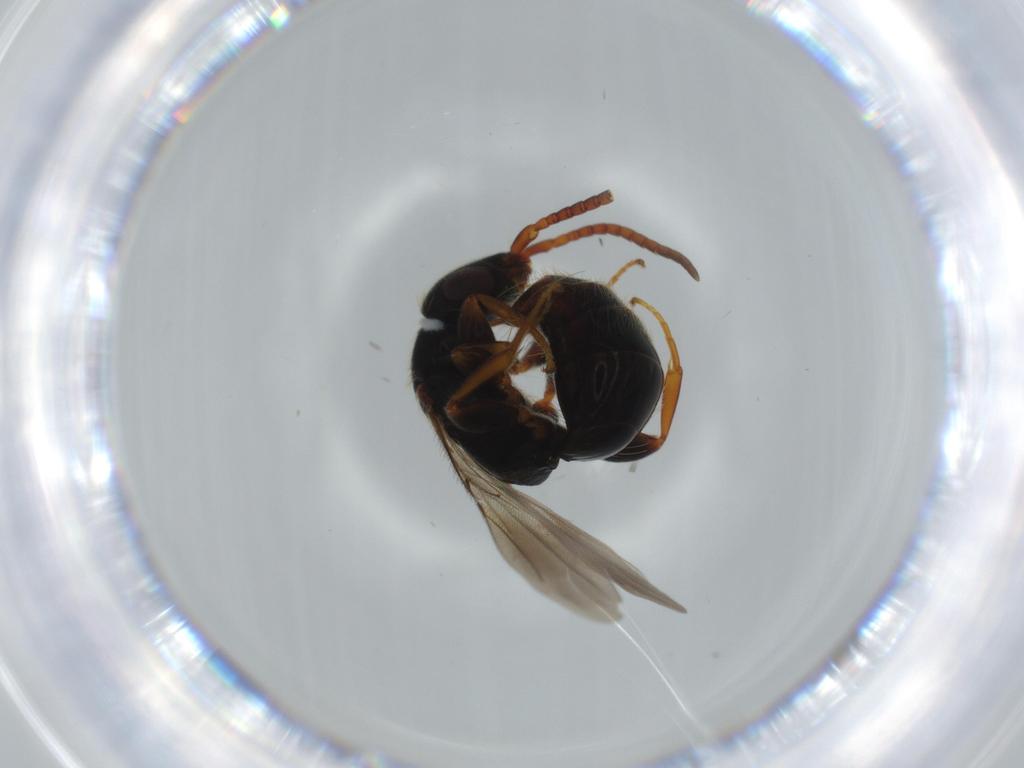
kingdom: Animalia
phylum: Arthropoda
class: Insecta
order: Hymenoptera
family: Bethylidae
